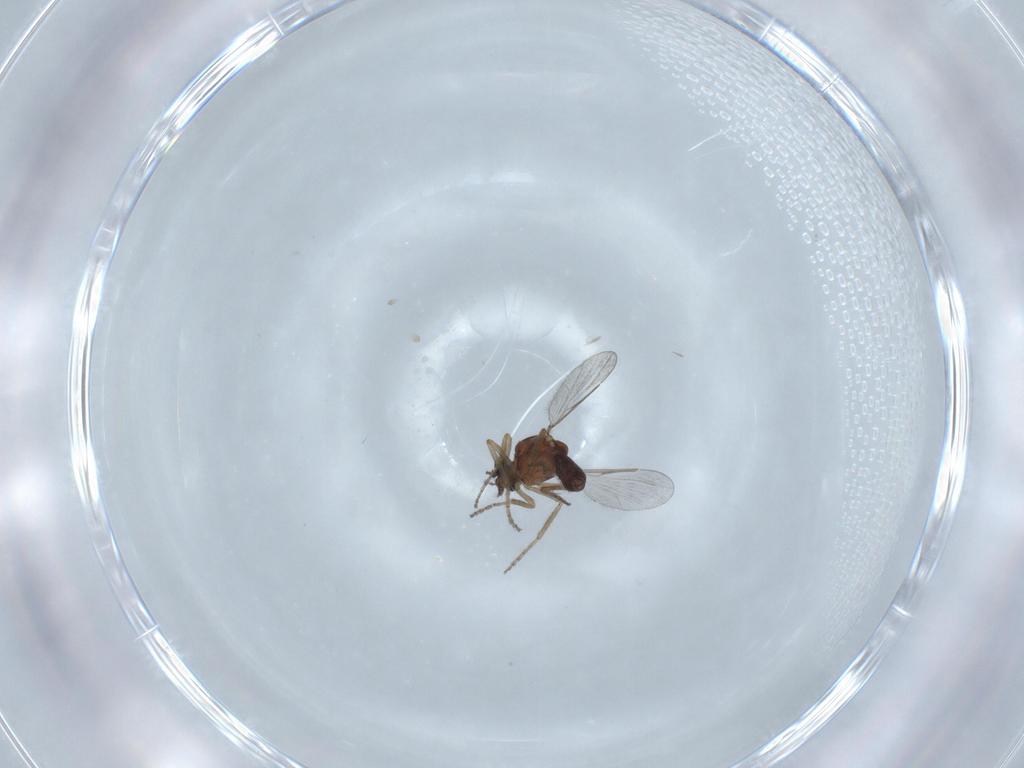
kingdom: Animalia
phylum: Arthropoda
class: Insecta
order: Diptera
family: Ceratopogonidae
